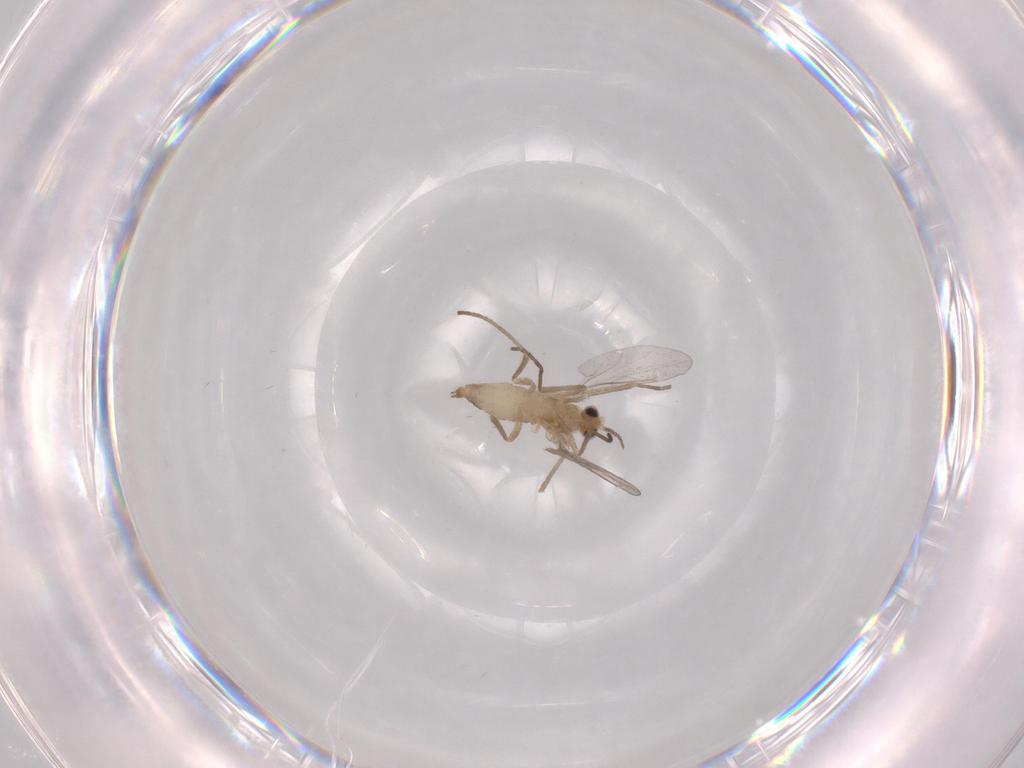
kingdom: Animalia
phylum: Arthropoda
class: Insecta
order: Diptera
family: Cecidomyiidae
